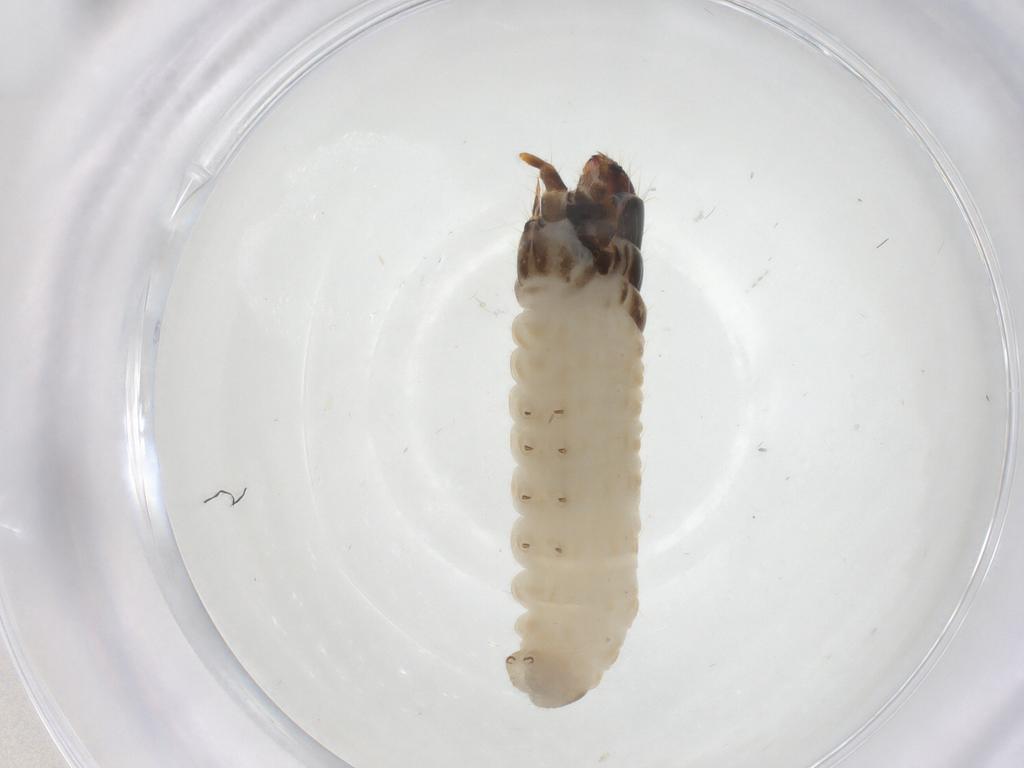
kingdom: Animalia
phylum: Arthropoda
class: Insecta
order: Lepidoptera
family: Psychidae
